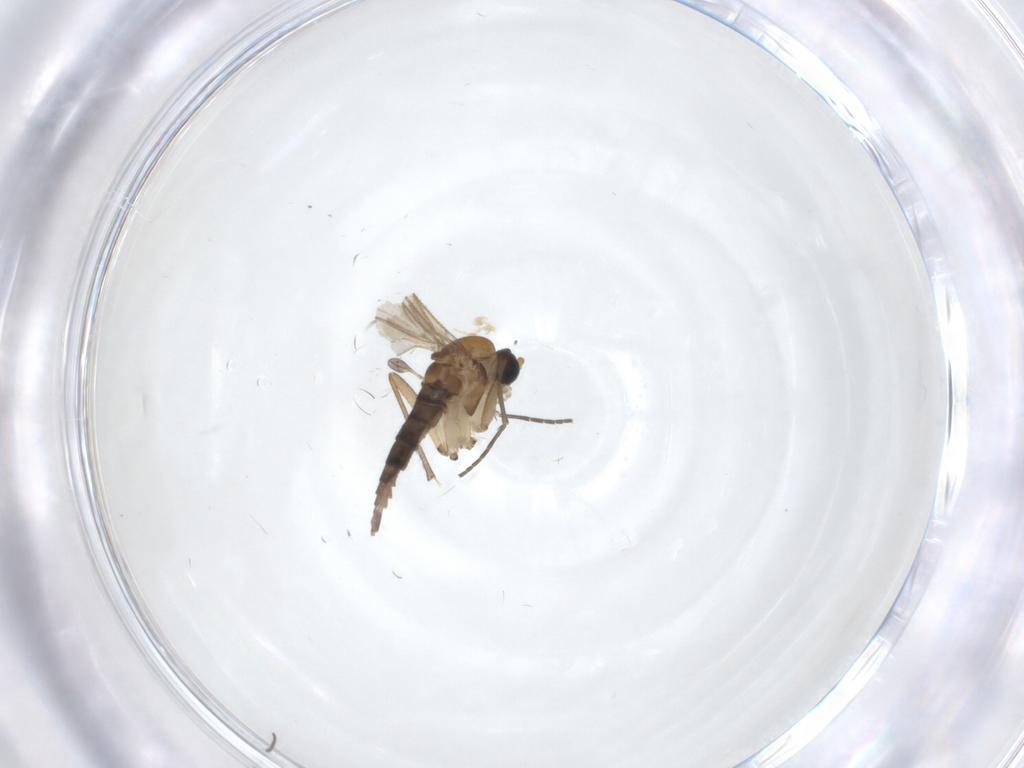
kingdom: Animalia
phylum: Arthropoda
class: Insecta
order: Diptera
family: Sciaridae
